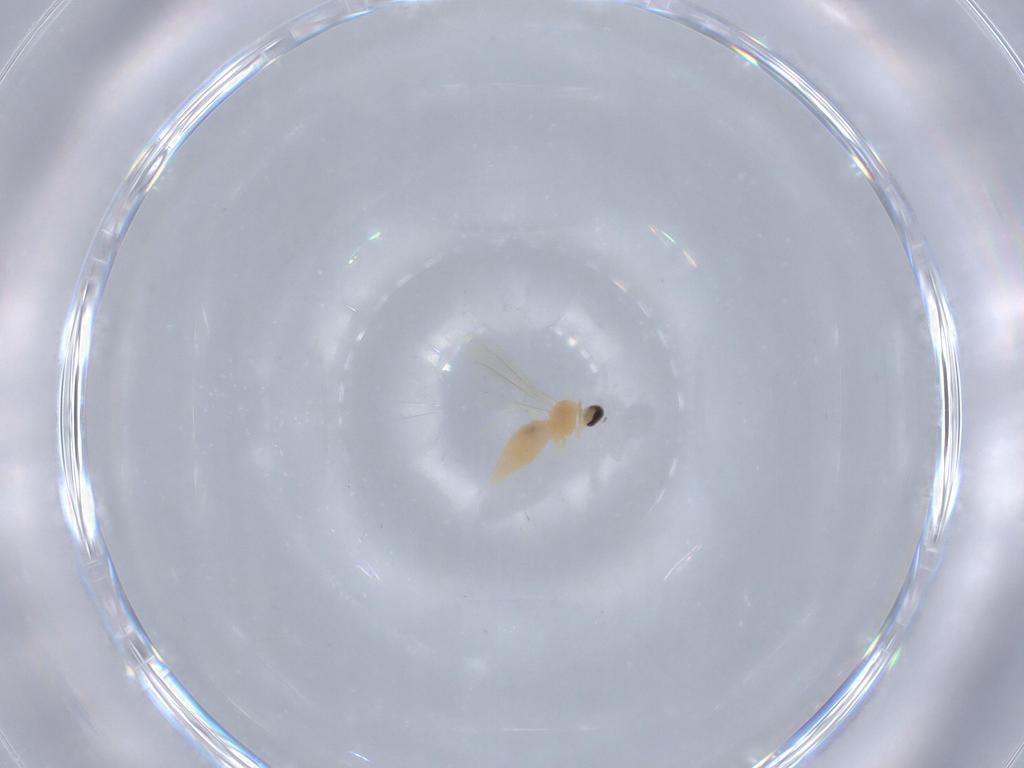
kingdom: Animalia
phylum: Arthropoda
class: Insecta
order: Diptera
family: Cecidomyiidae
